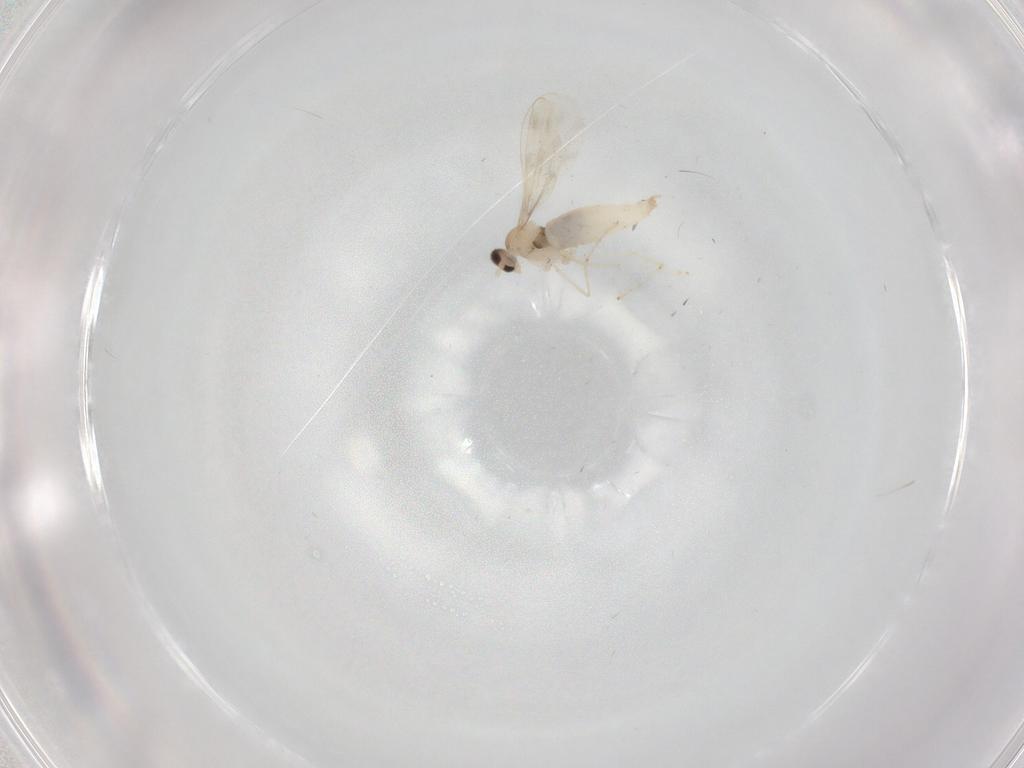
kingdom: Animalia
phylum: Arthropoda
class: Insecta
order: Diptera
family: Cecidomyiidae
